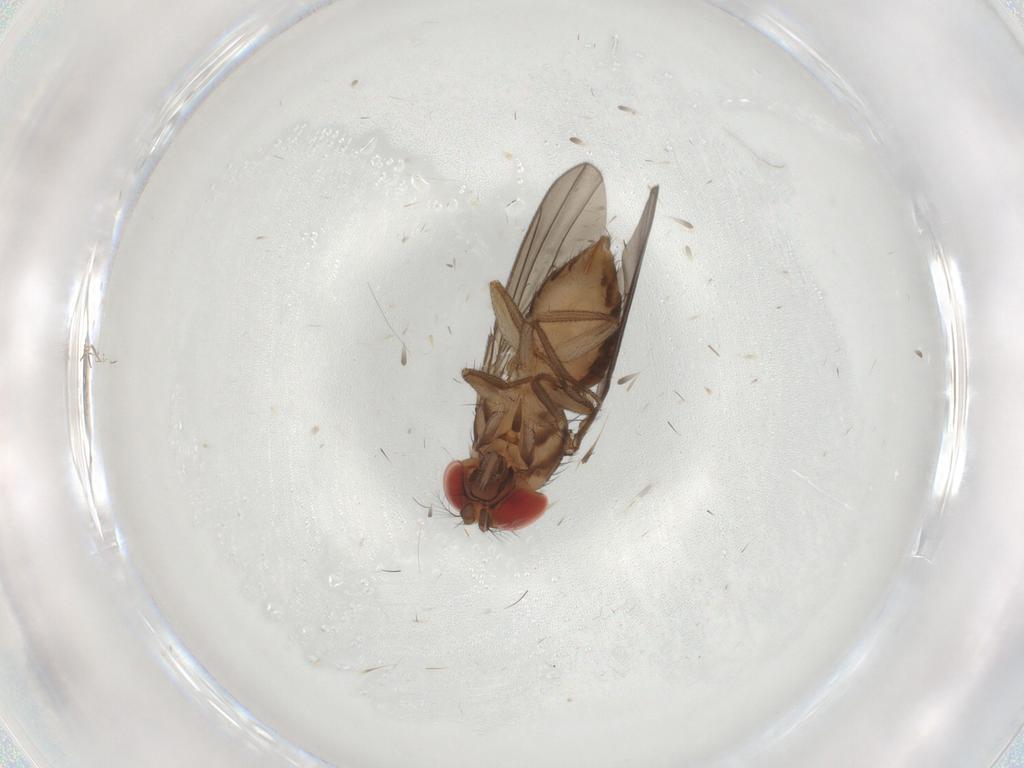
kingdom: Animalia
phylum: Arthropoda
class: Insecta
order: Diptera
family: Drosophilidae
